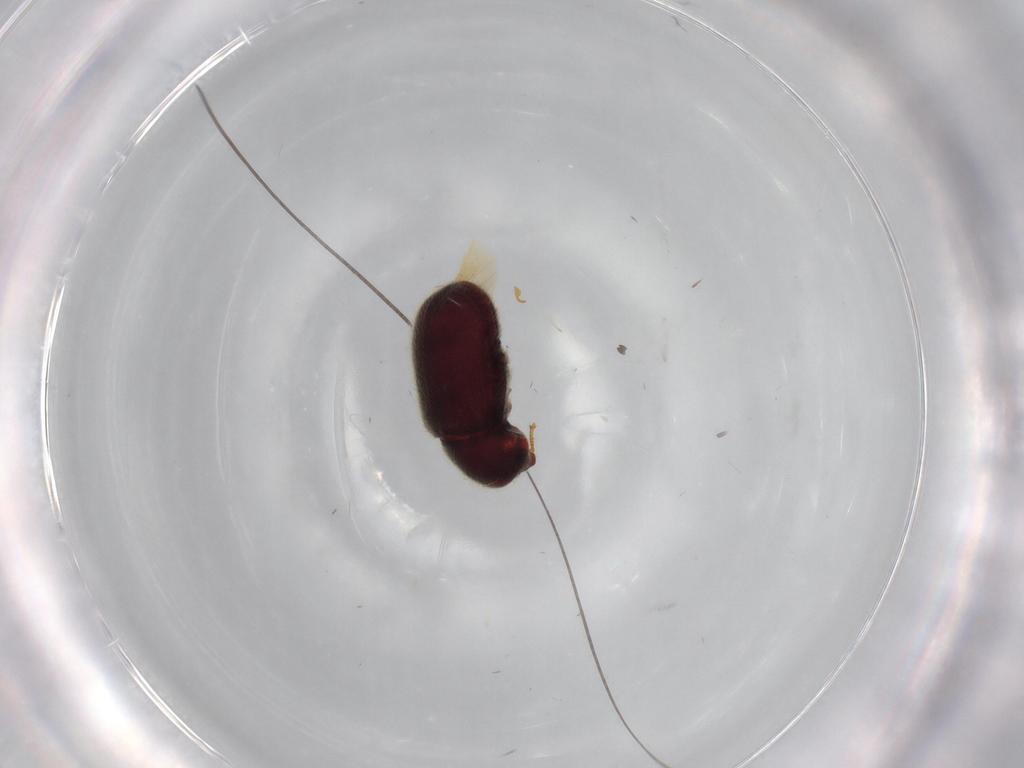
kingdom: Animalia
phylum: Arthropoda
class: Insecta
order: Coleoptera
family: Ptinidae
